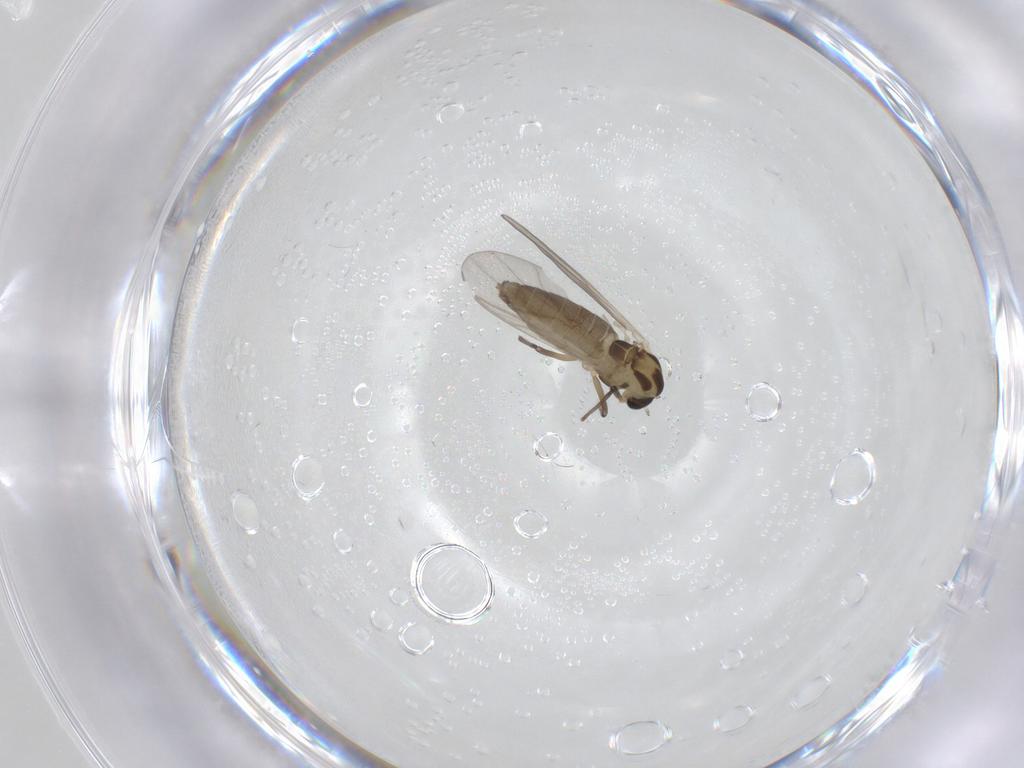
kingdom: Animalia
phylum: Arthropoda
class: Insecta
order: Diptera
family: Chironomidae
